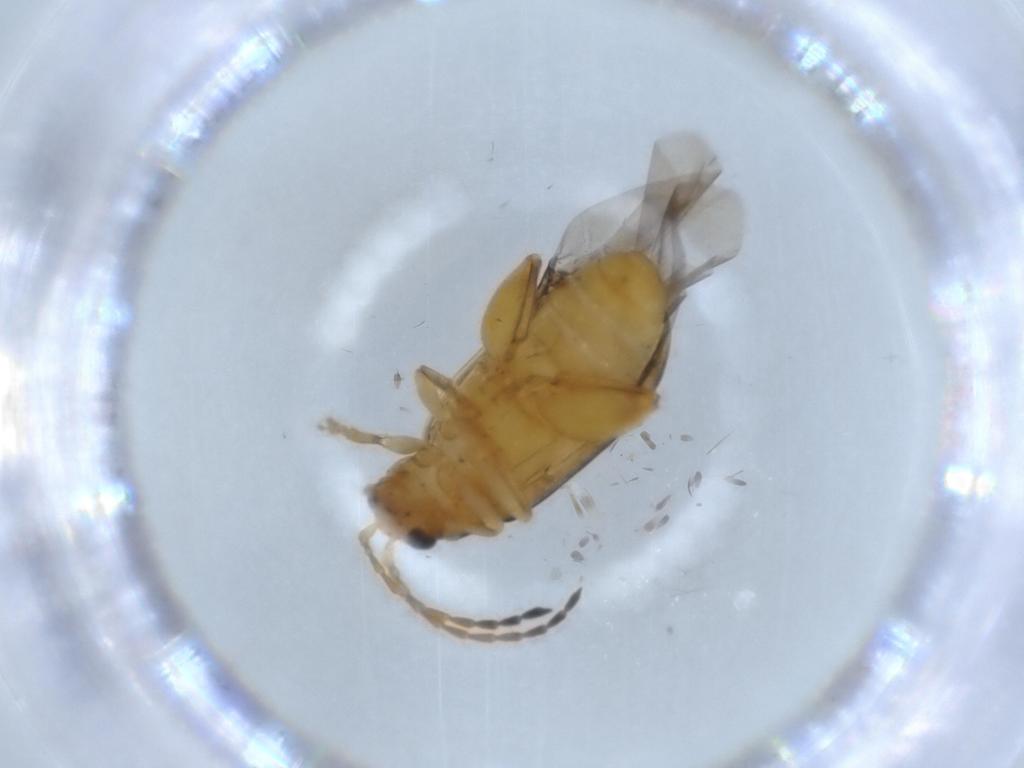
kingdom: Animalia
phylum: Arthropoda
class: Insecta
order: Coleoptera
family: Chrysomelidae
